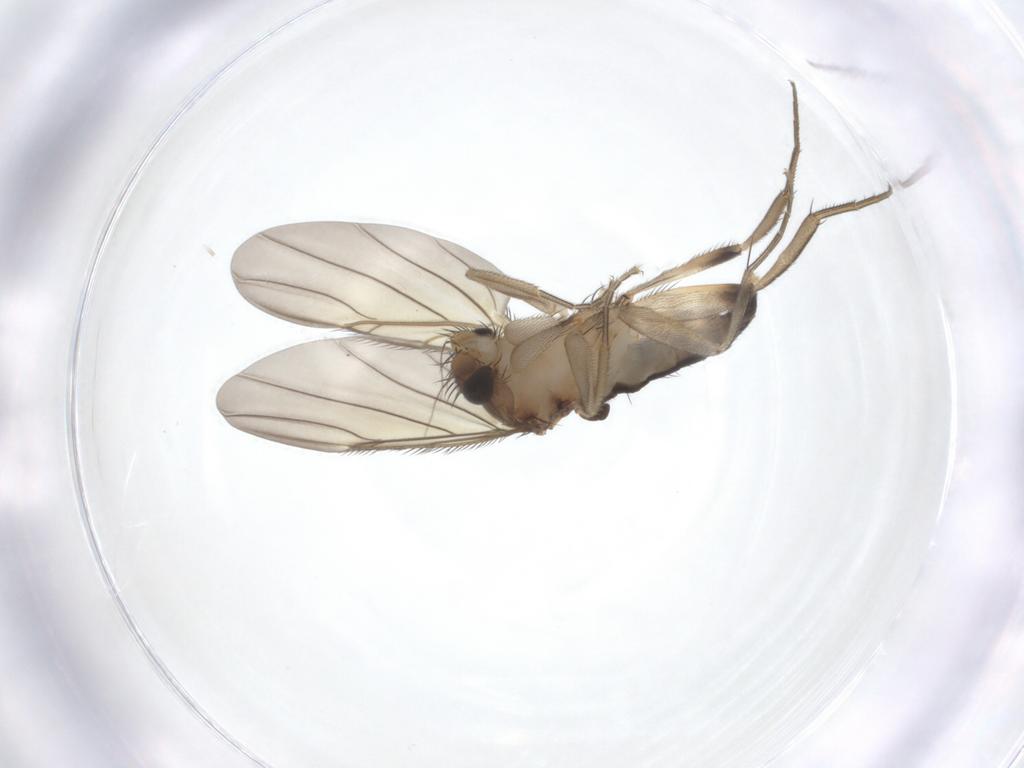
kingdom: Animalia
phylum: Arthropoda
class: Insecta
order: Diptera
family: Phoridae
